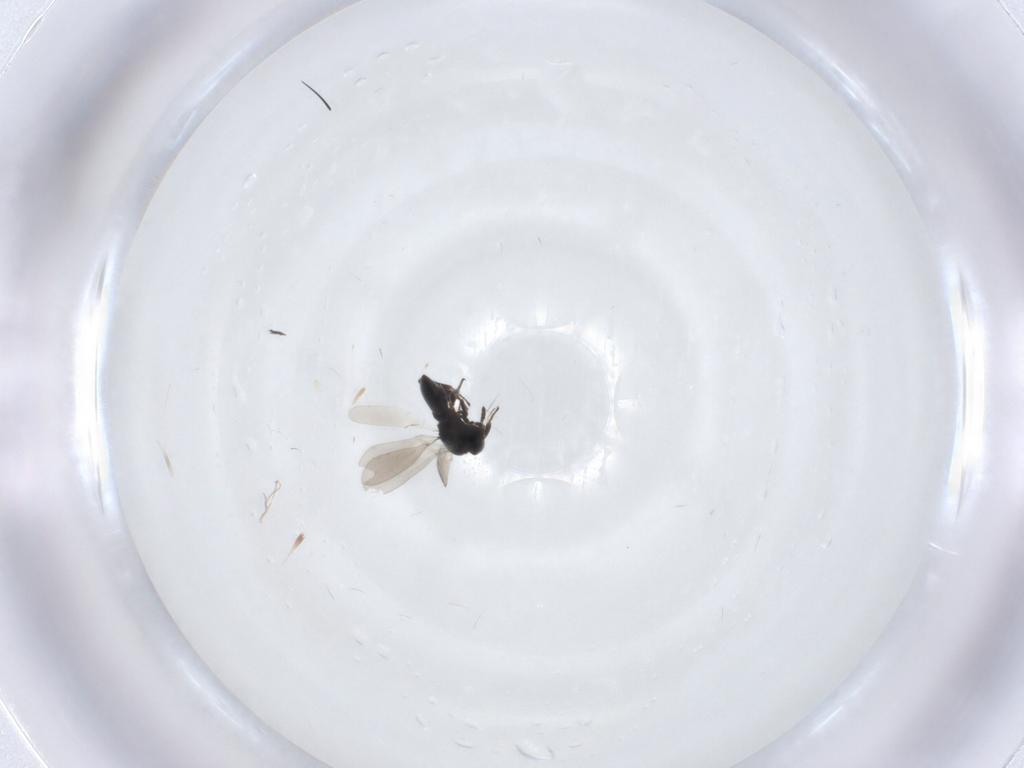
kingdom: Animalia
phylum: Arthropoda
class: Insecta
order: Hymenoptera
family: Platygastridae
